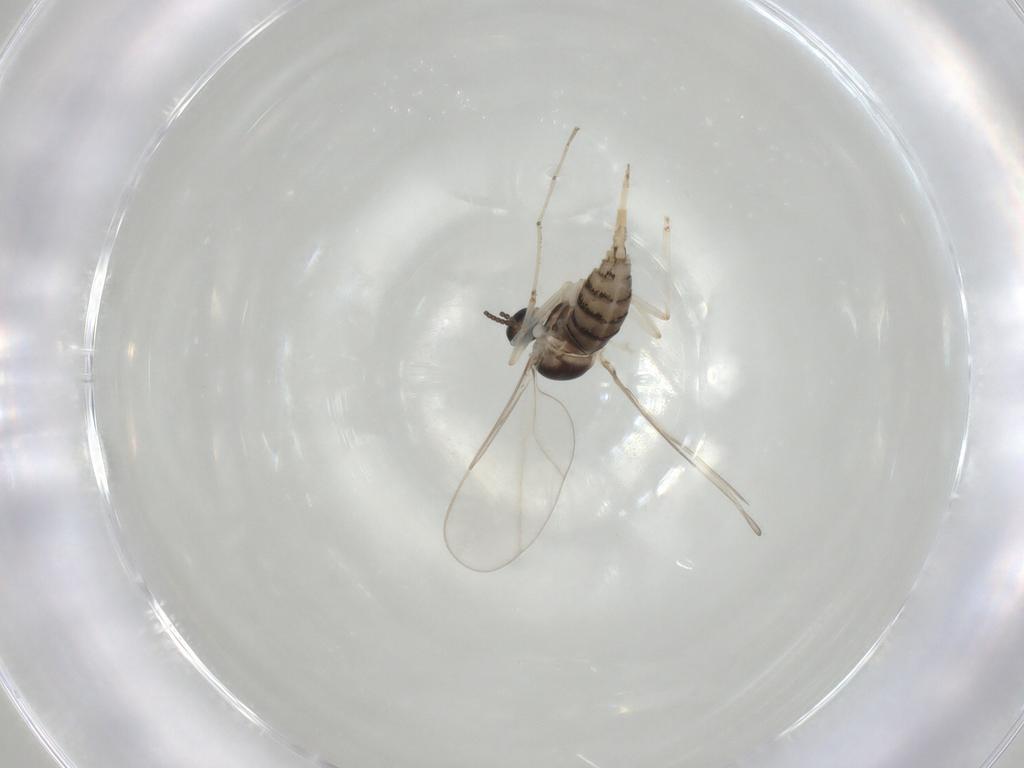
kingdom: Animalia
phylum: Arthropoda
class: Insecta
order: Diptera
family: Cecidomyiidae
